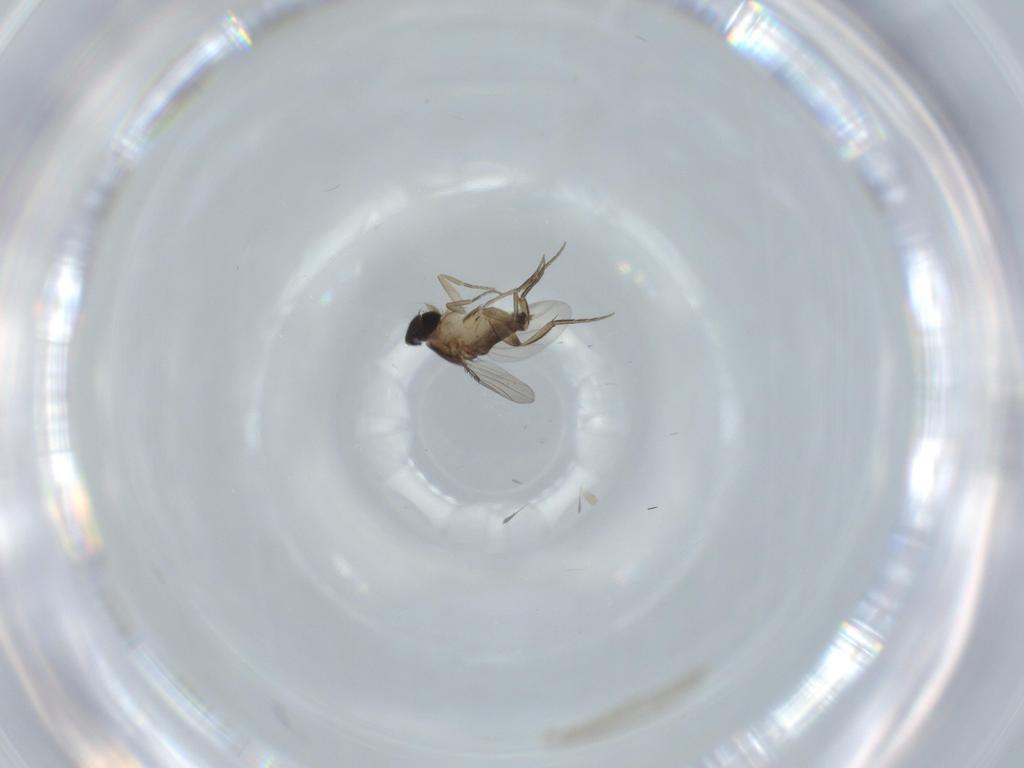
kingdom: Animalia
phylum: Arthropoda
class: Insecta
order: Diptera
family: Phoridae
